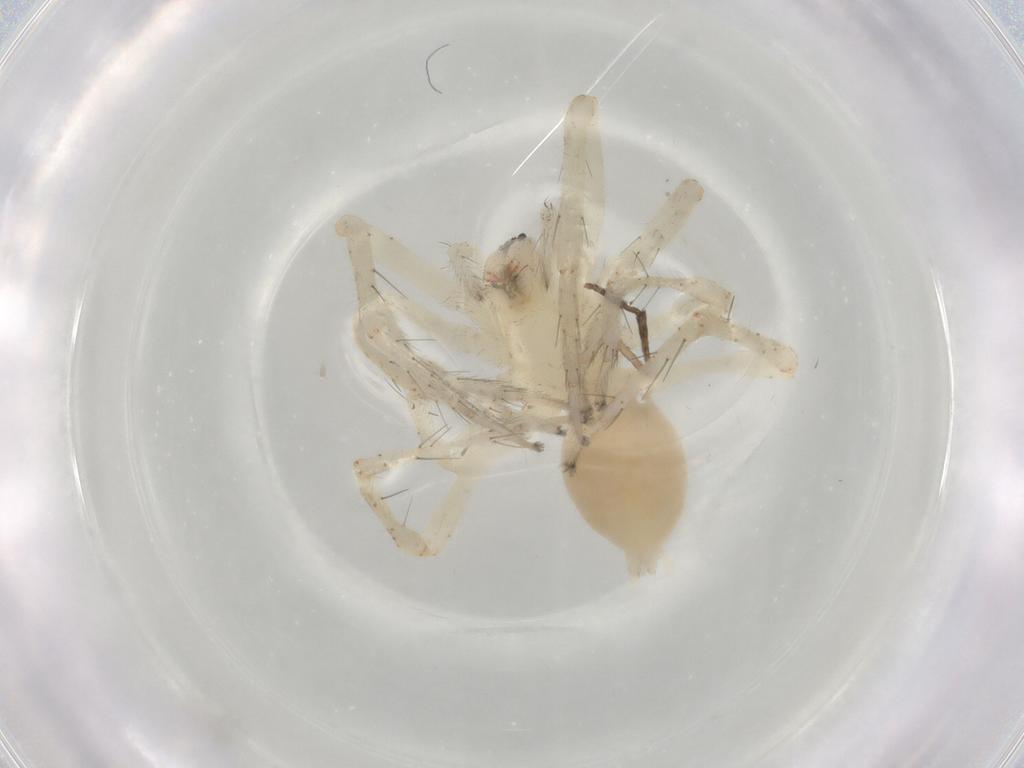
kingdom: Animalia
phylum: Arthropoda
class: Arachnida
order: Araneae
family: Anyphaenidae
